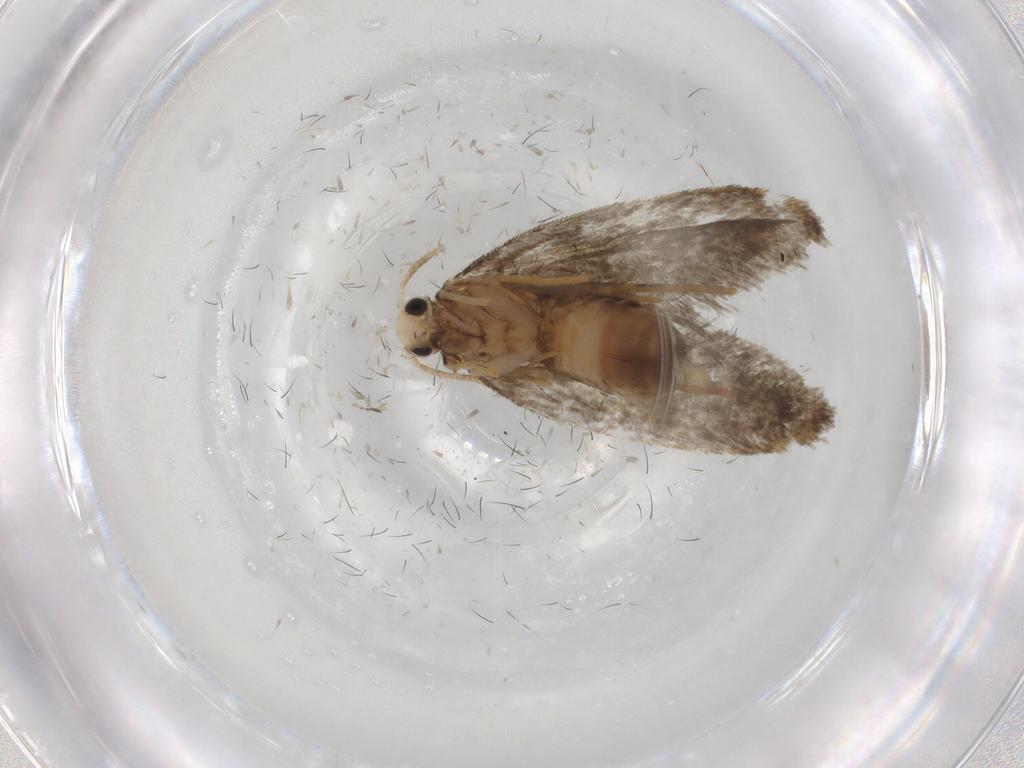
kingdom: Animalia
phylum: Arthropoda
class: Insecta
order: Lepidoptera
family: Psychidae
